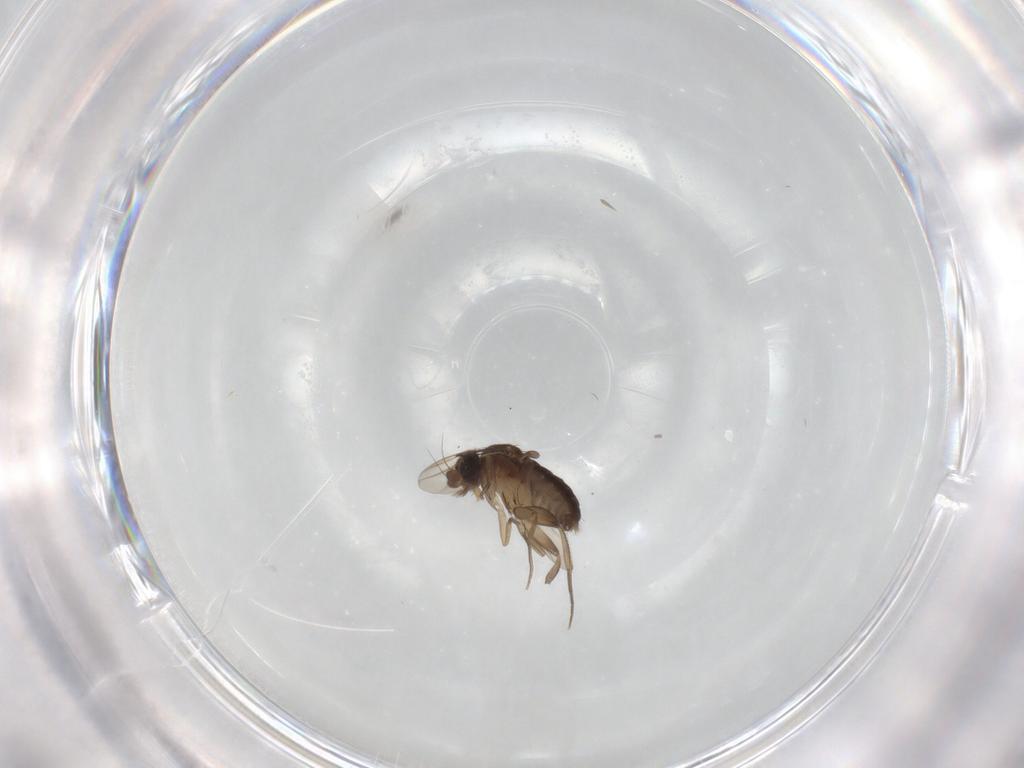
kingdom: Animalia
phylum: Arthropoda
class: Insecta
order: Diptera
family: Phoridae
